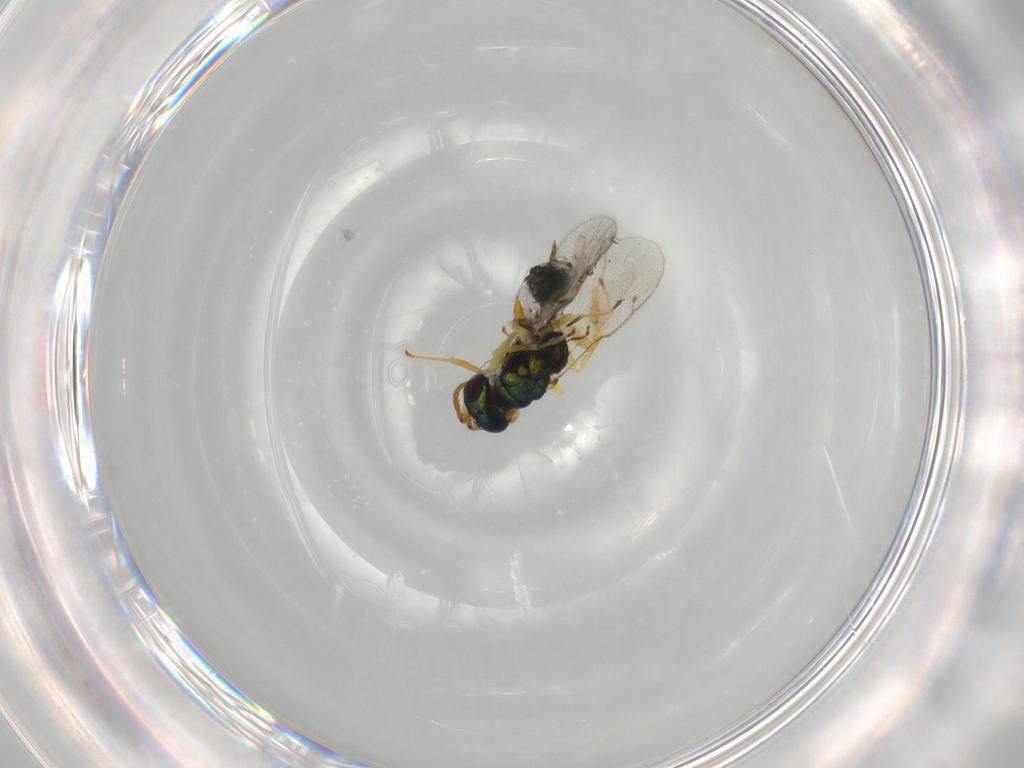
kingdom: Animalia
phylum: Arthropoda
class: Insecta
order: Hymenoptera
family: Pteromalidae
